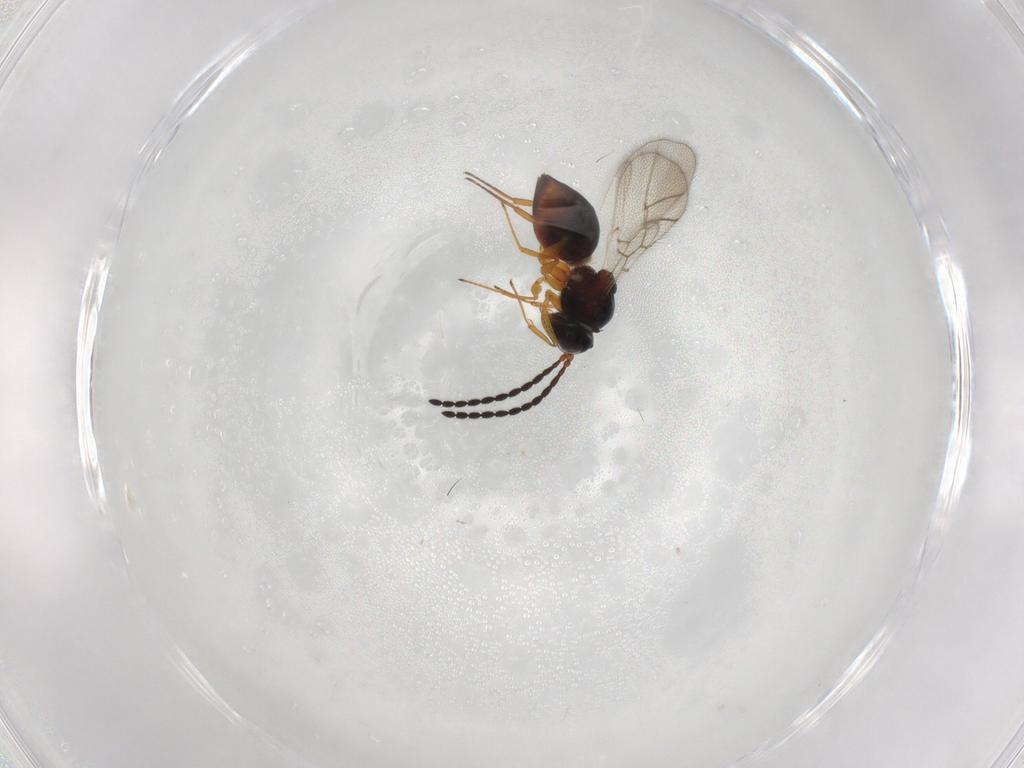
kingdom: Animalia
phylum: Arthropoda
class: Insecta
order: Hymenoptera
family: Figitidae
